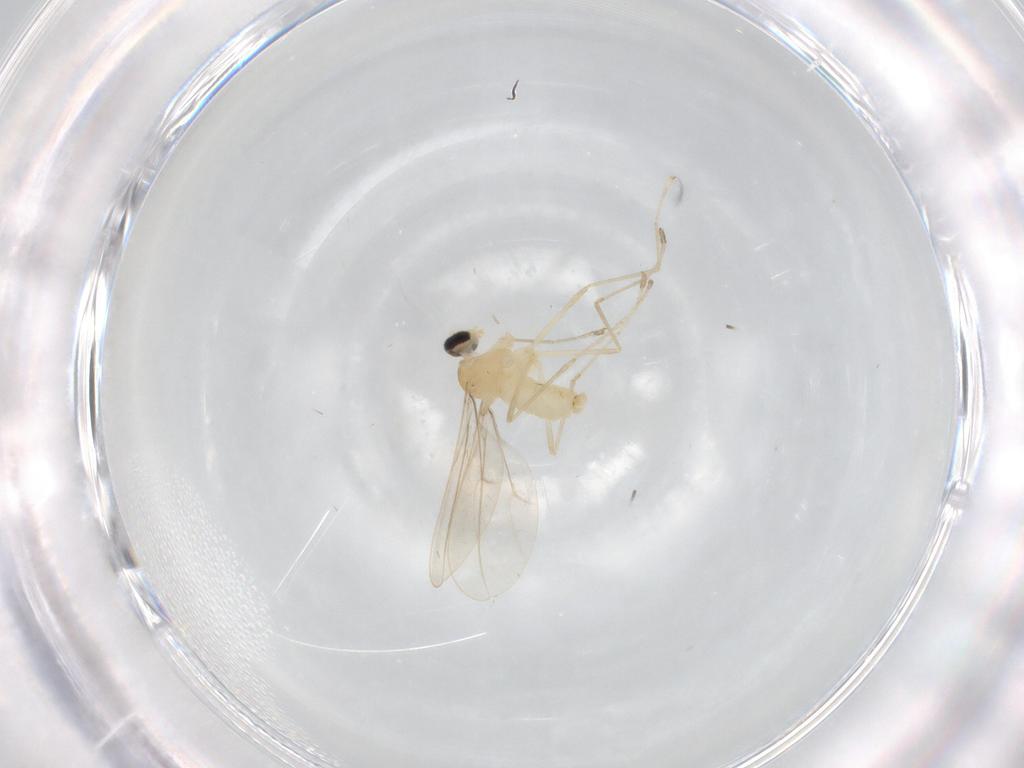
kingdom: Animalia
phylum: Arthropoda
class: Insecta
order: Diptera
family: Cecidomyiidae
